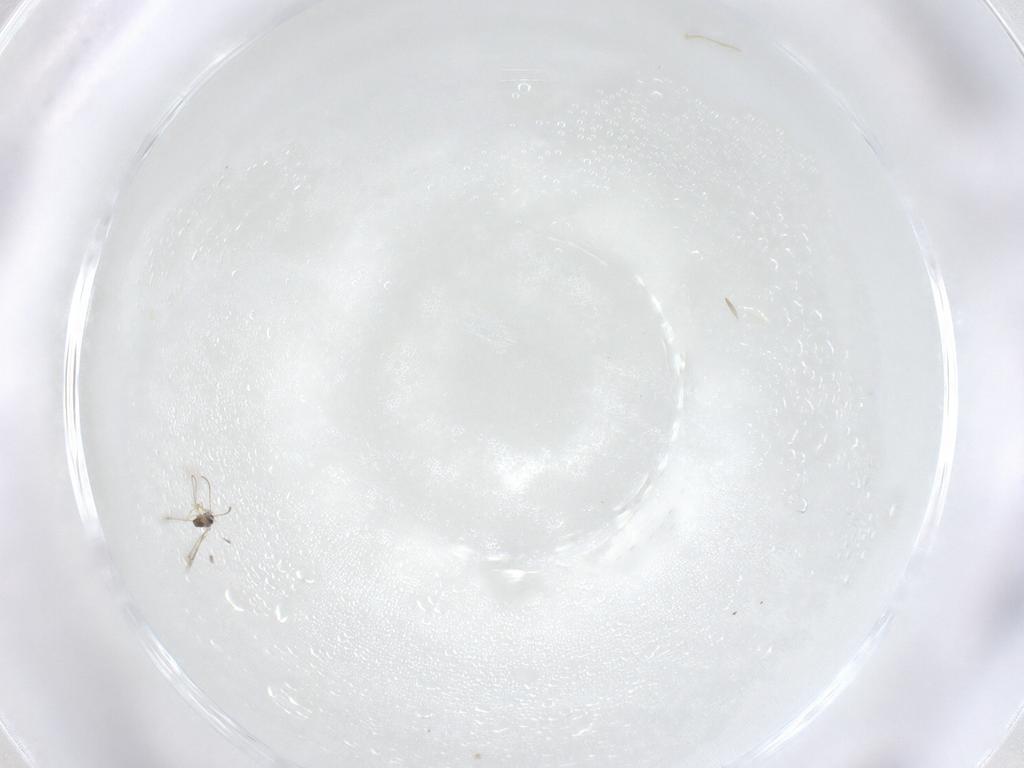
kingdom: Animalia
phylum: Arthropoda
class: Insecta
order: Hymenoptera
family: Mymaridae
